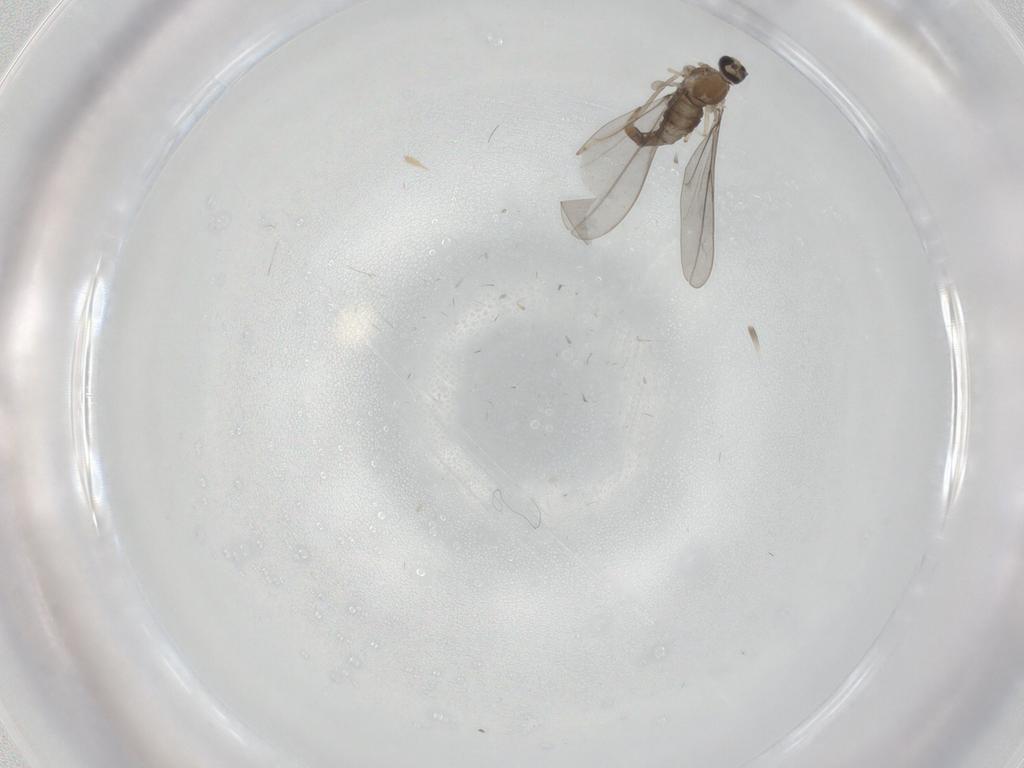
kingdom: Animalia
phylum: Arthropoda
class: Insecta
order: Diptera
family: Cecidomyiidae
